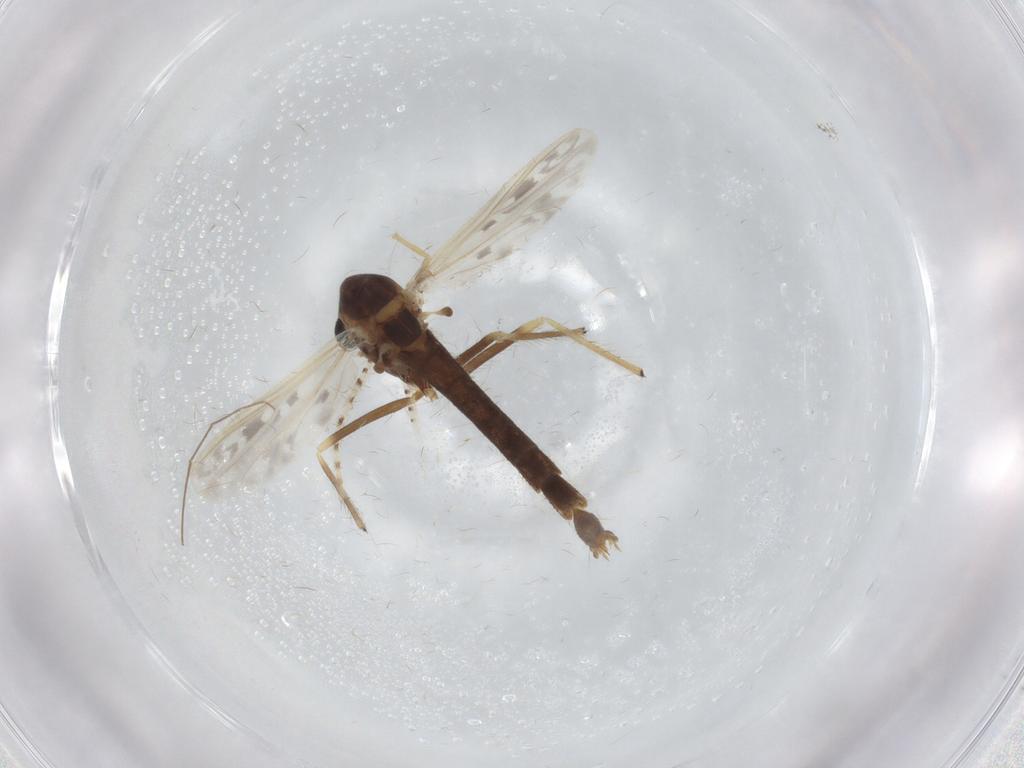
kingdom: Animalia
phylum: Arthropoda
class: Insecta
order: Diptera
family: Chironomidae
